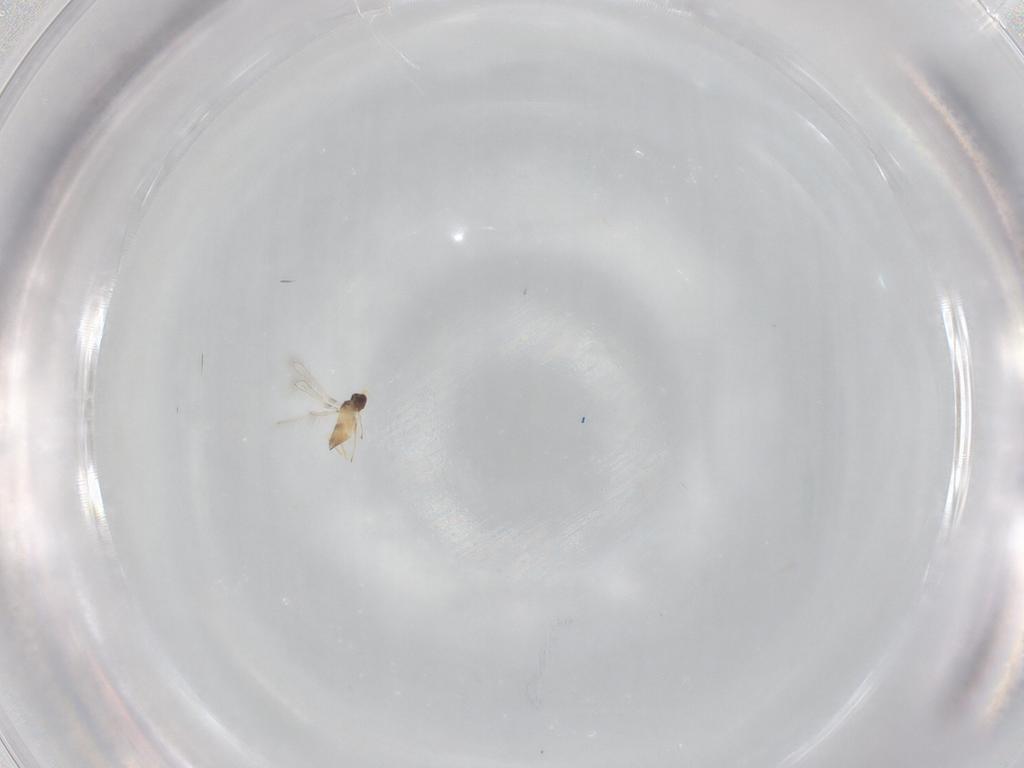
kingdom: Animalia
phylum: Arthropoda
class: Insecta
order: Hymenoptera
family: Mymaridae
